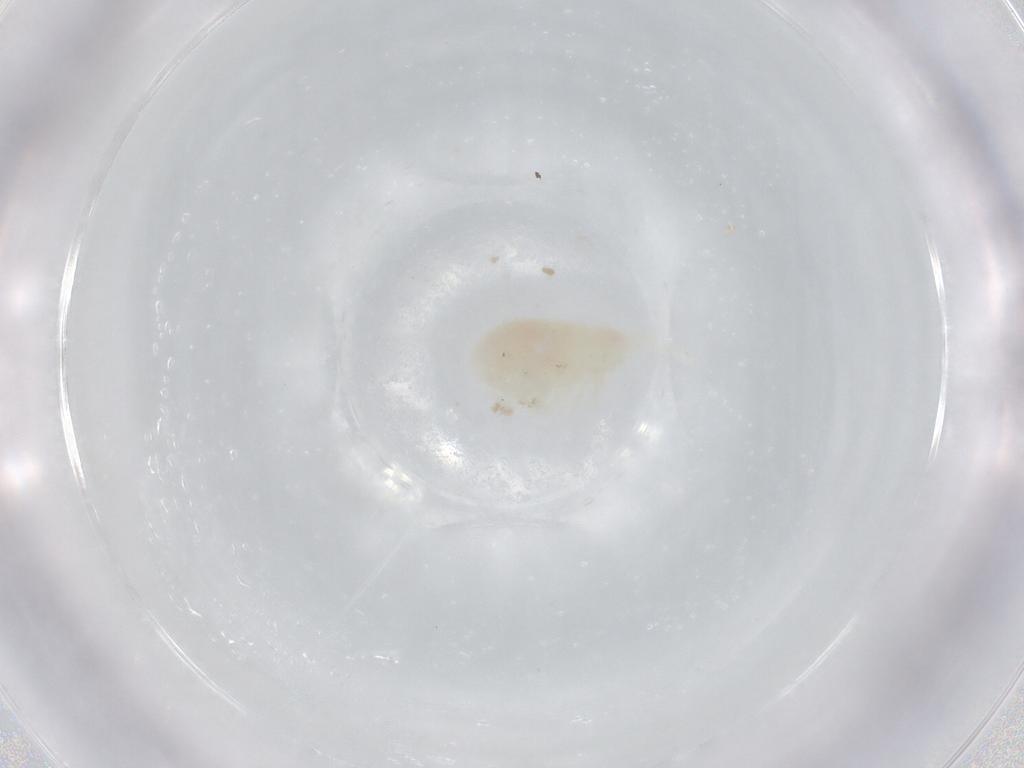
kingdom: Animalia
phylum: Arthropoda
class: Copepoda
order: Calanoida
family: Diaptomidae
